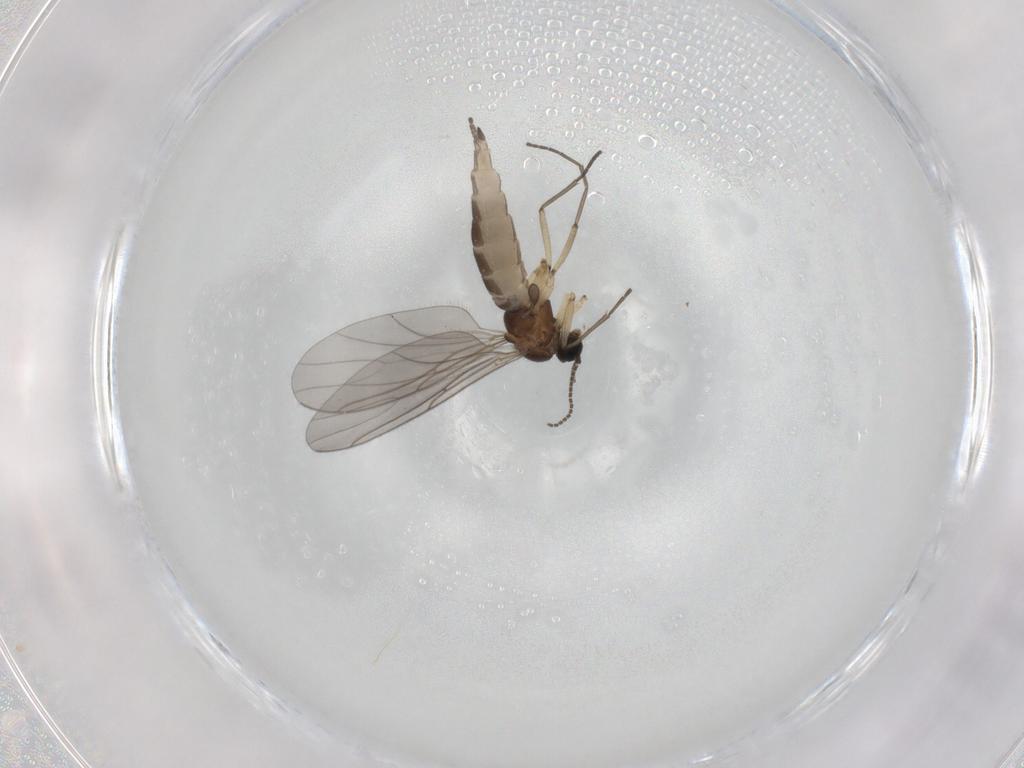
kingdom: Animalia
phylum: Arthropoda
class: Insecta
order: Diptera
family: Sciaridae
